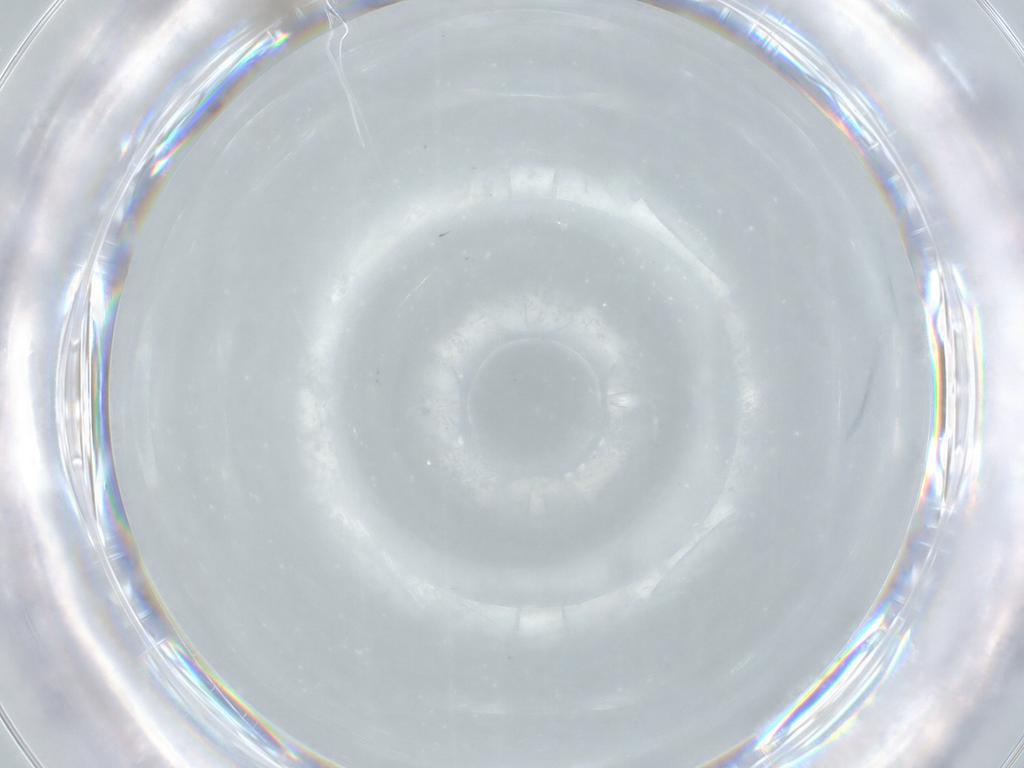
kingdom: Animalia
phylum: Arthropoda
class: Insecta
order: Diptera
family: Cecidomyiidae
